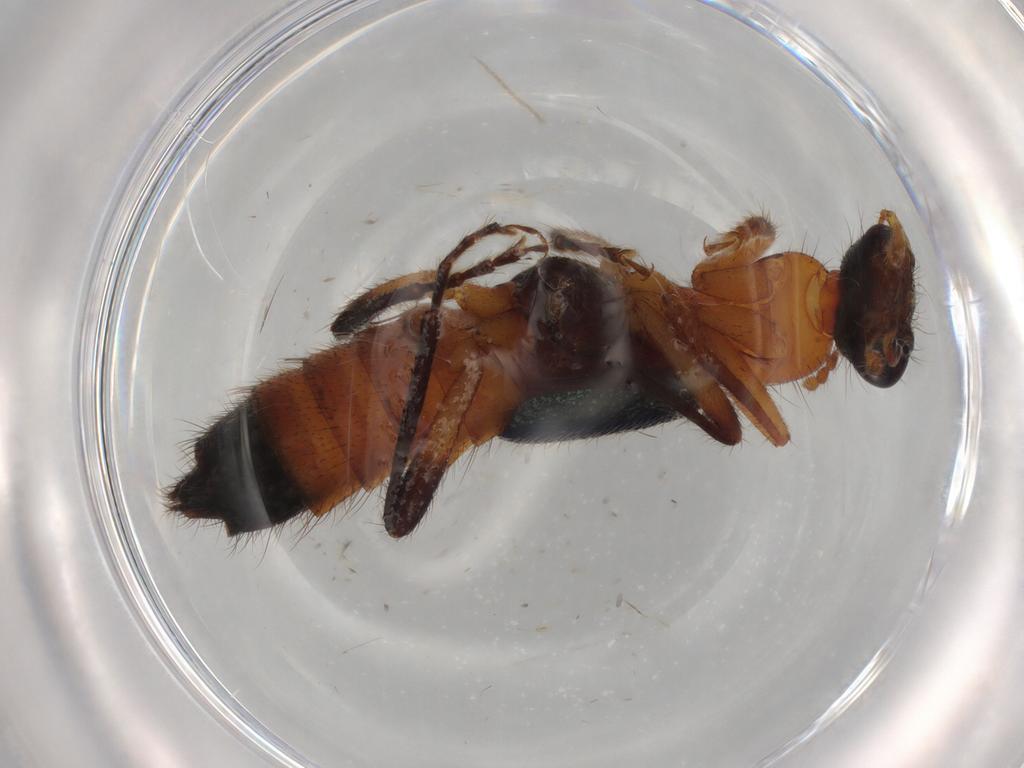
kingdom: Animalia
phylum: Arthropoda
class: Insecta
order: Coleoptera
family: Staphylinidae
